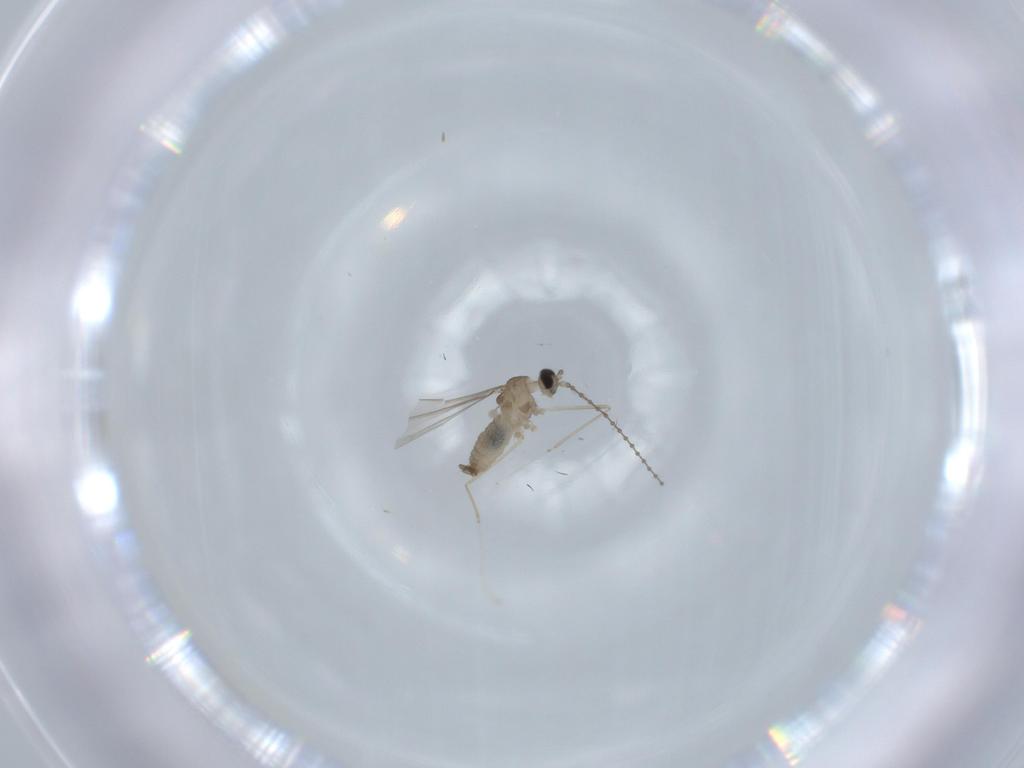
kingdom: Animalia
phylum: Arthropoda
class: Insecta
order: Diptera
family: Cecidomyiidae
